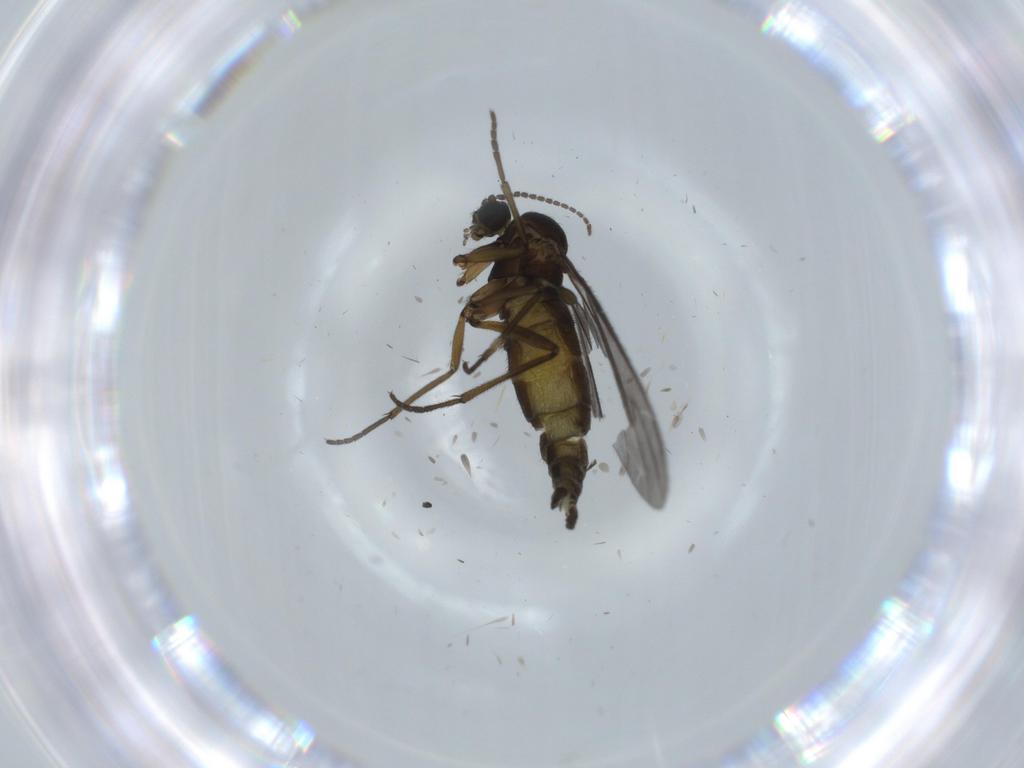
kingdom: Animalia
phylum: Arthropoda
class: Insecta
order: Diptera
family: Sciaridae
